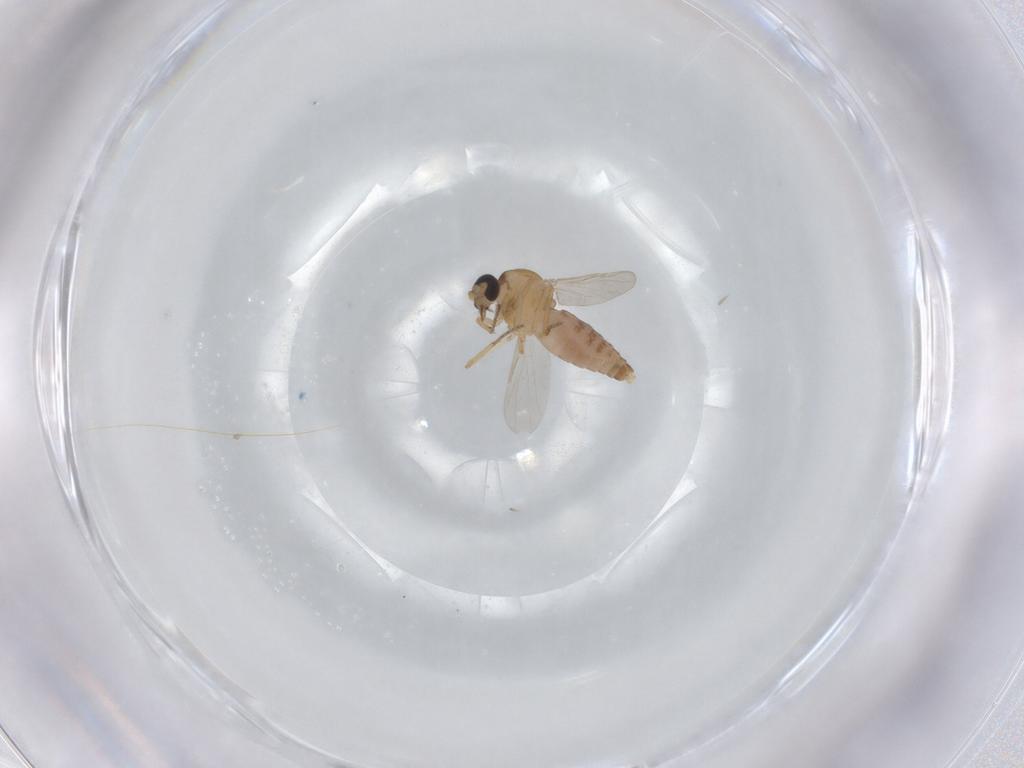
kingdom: Animalia
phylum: Arthropoda
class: Insecta
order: Diptera
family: Ceratopogonidae
